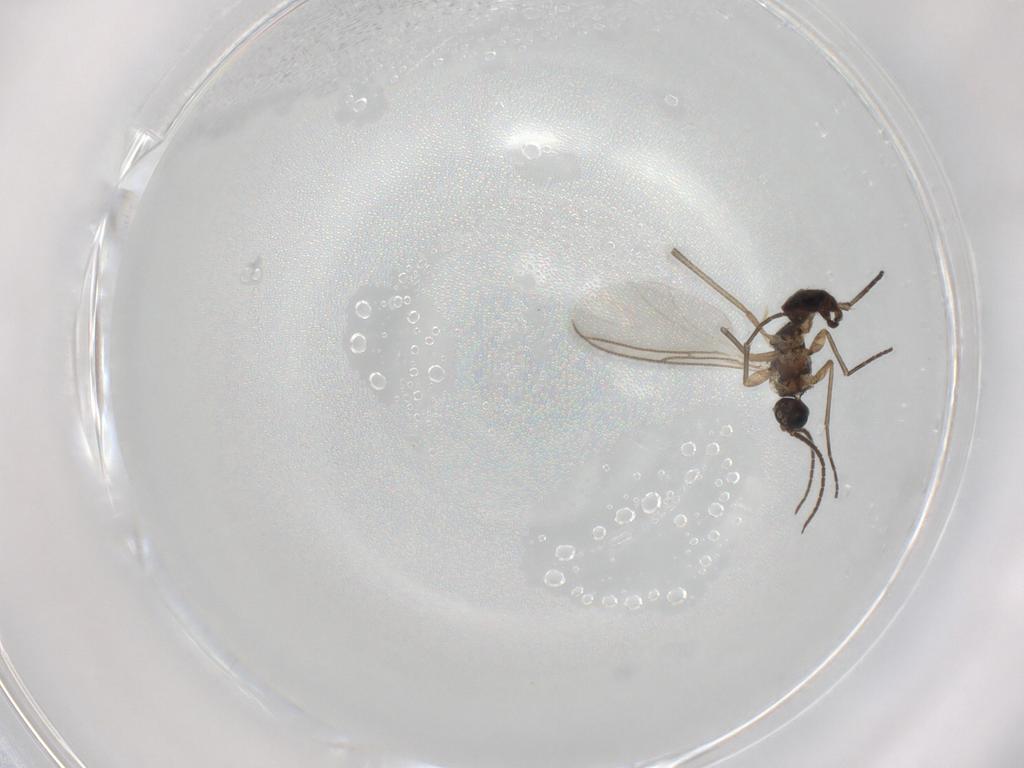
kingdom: Animalia
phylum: Arthropoda
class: Insecta
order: Diptera
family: Sciaridae
